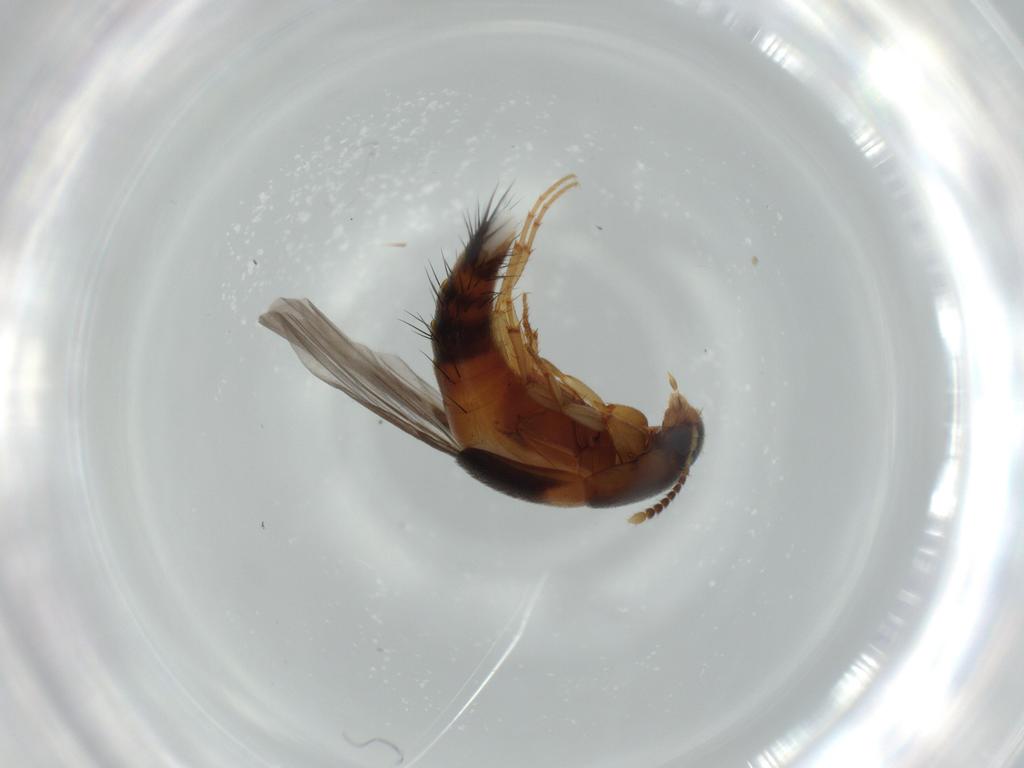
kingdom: Animalia
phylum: Arthropoda
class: Insecta
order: Coleoptera
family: Staphylinidae
